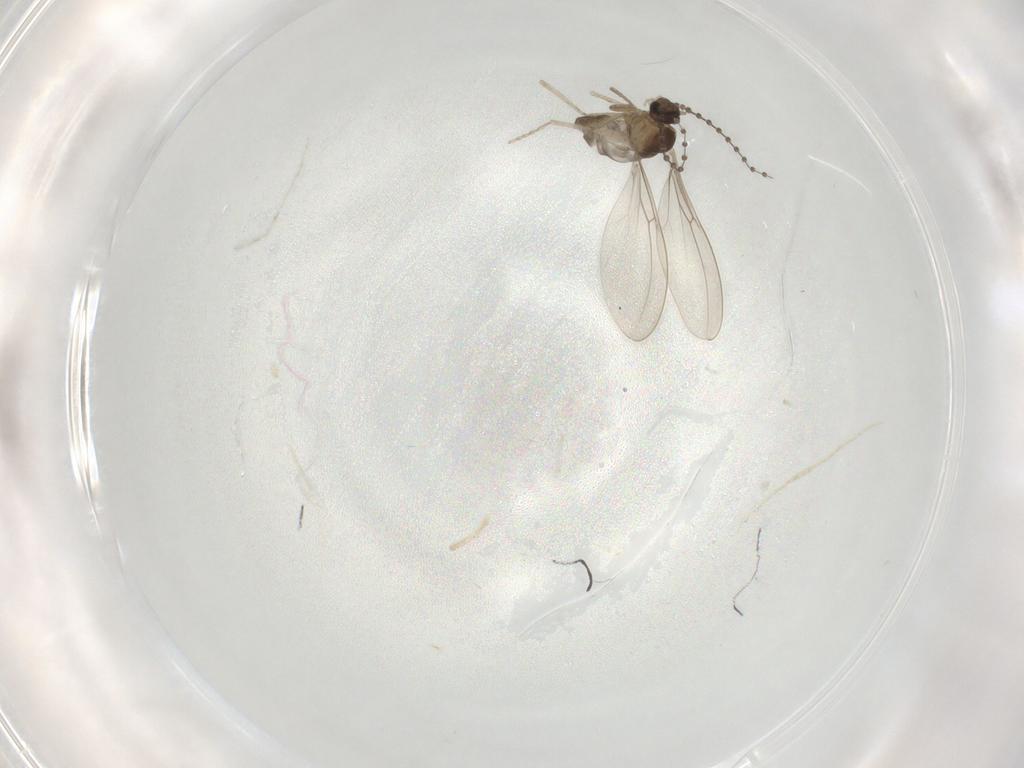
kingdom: Animalia
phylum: Arthropoda
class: Insecta
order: Diptera
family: Cecidomyiidae
